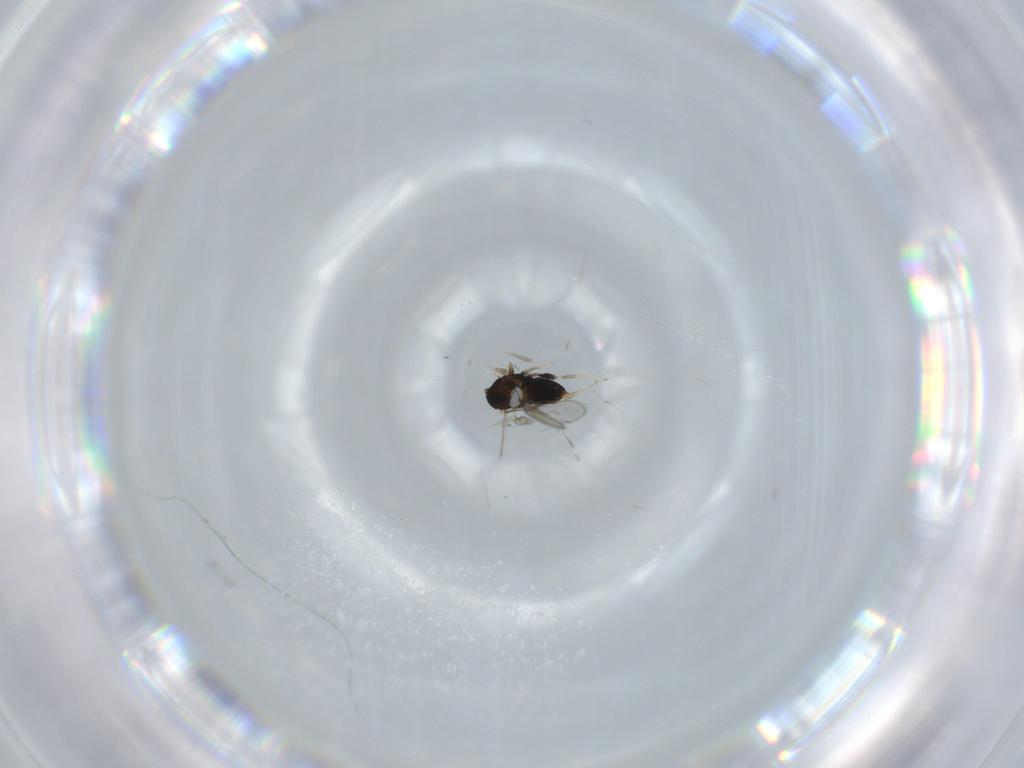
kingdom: Animalia
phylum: Arthropoda
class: Insecta
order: Hymenoptera
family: Aphelinidae
